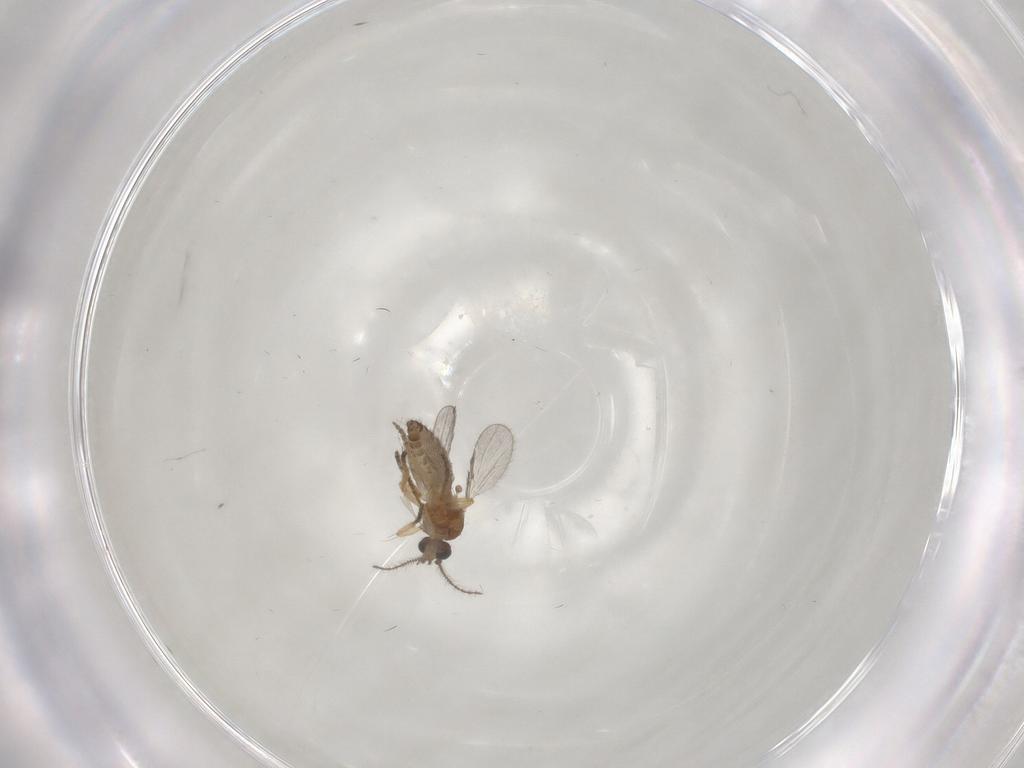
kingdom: Animalia
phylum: Arthropoda
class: Insecta
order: Diptera
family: Ceratopogonidae
